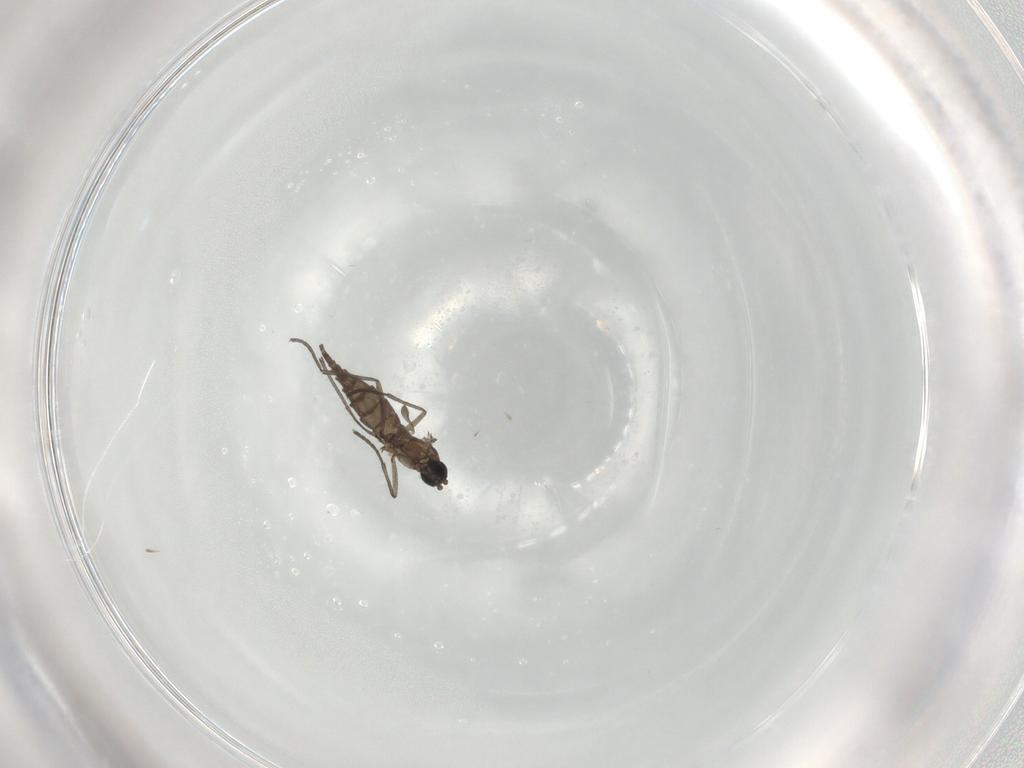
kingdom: Animalia
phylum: Arthropoda
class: Insecta
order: Diptera
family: Sciaridae
